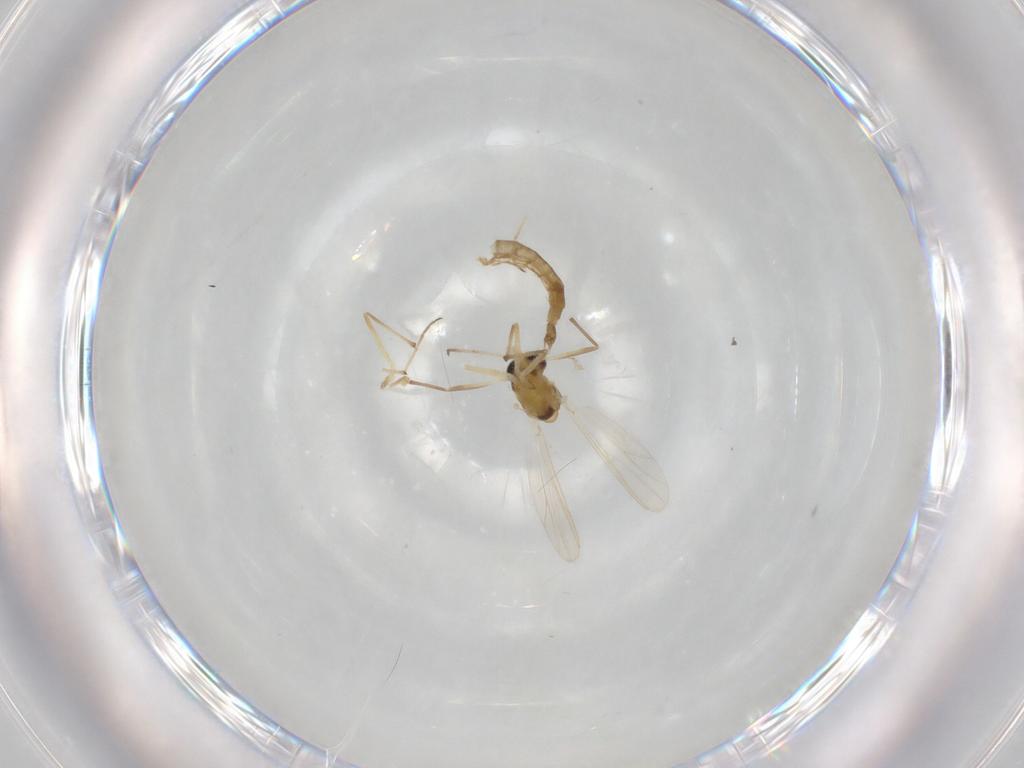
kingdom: Animalia
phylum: Arthropoda
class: Insecta
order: Diptera
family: Chironomidae
